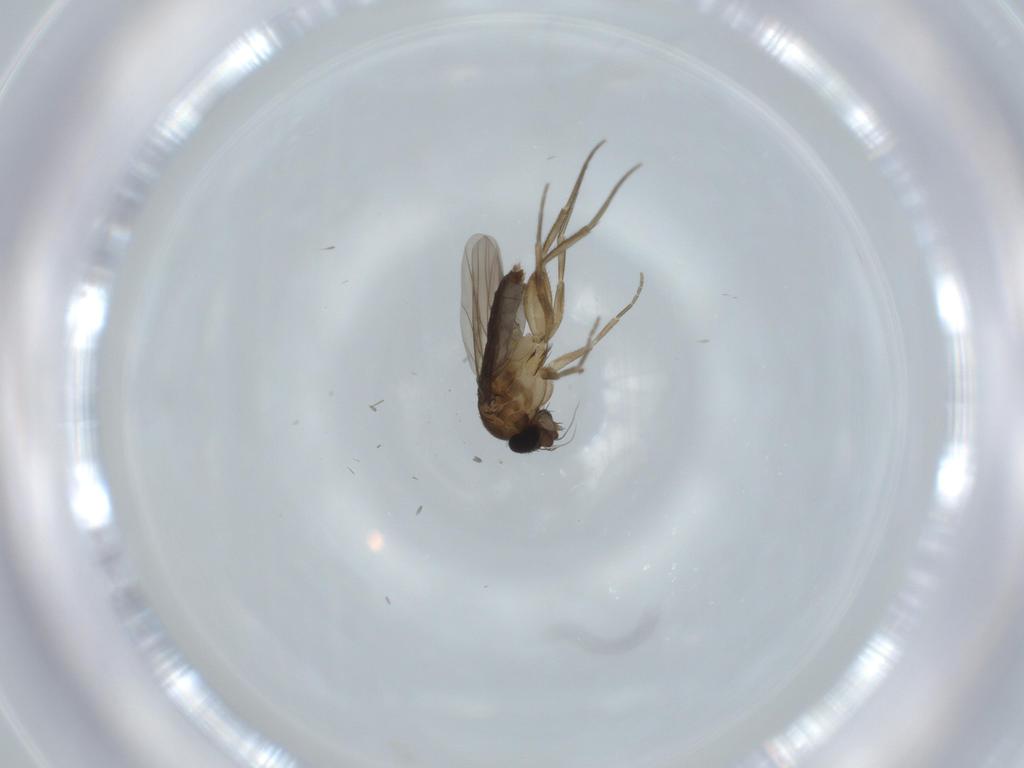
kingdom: Animalia
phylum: Arthropoda
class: Insecta
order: Diptera
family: Phoridae
